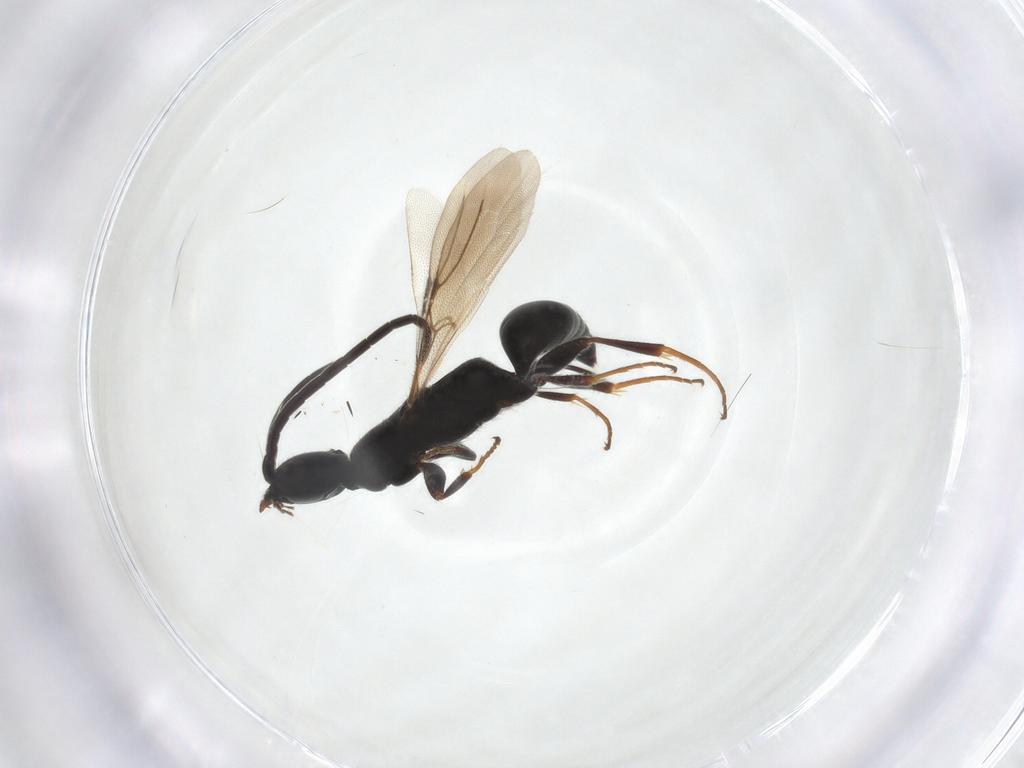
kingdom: Animalia
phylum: Arthropoda
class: Insecta
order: Hymenoptera
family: Bethylidae
